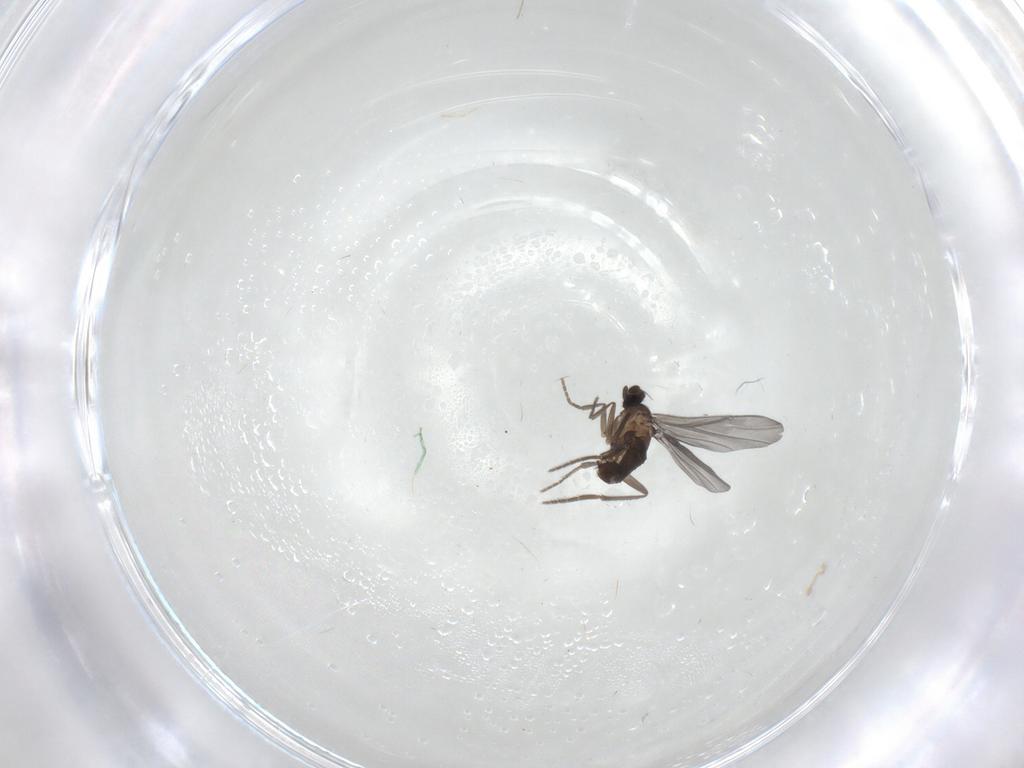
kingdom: Animalia
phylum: Arthropoda
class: Insecta
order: Diptera
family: Phoridae
